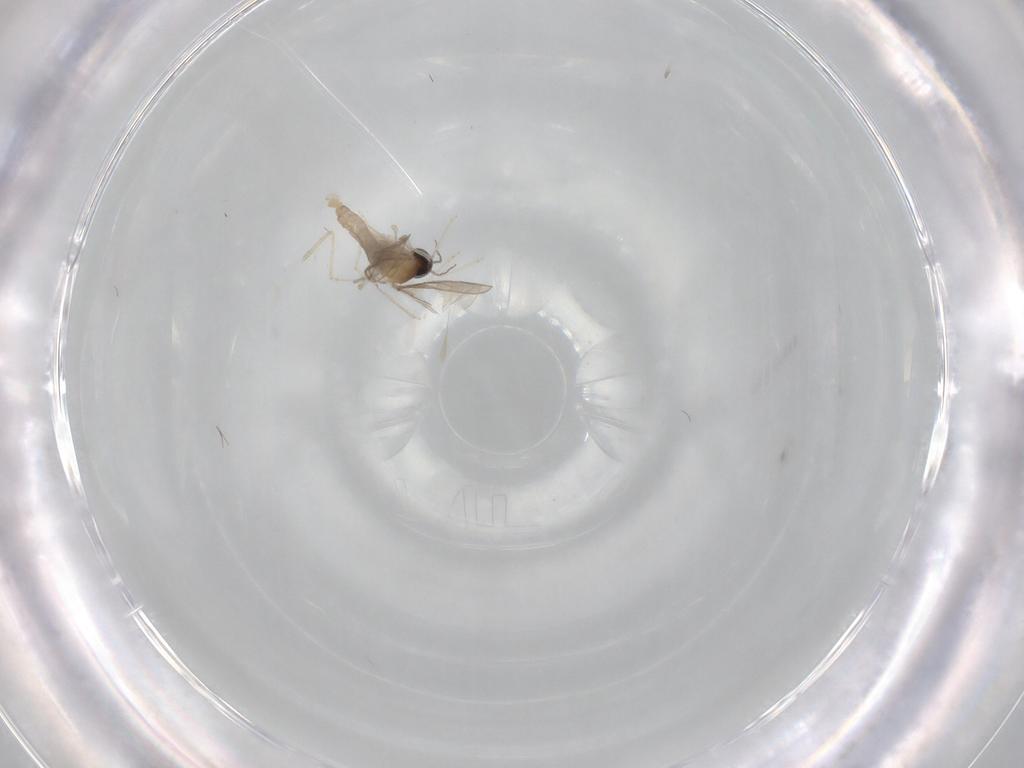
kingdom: Animalia
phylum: Arthropoda
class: Insecta
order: Diptera
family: Cecidomyiidae
